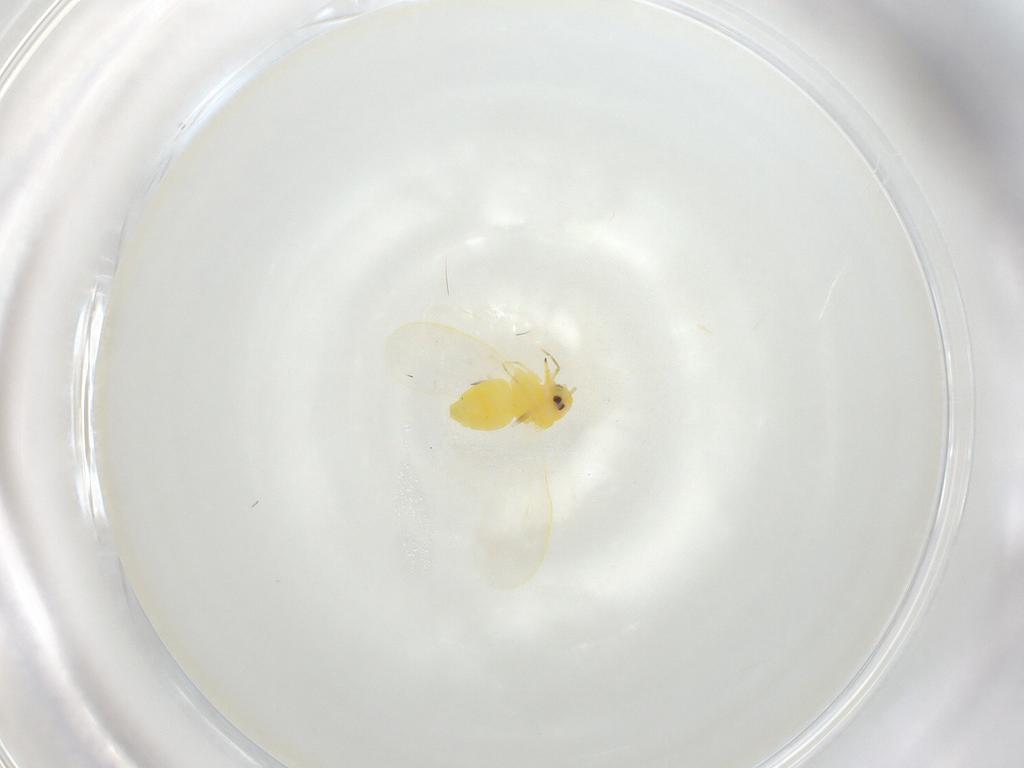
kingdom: Animalia
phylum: Arthropoda
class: Insecta
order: Hemiptera
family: Aleyrodidae
